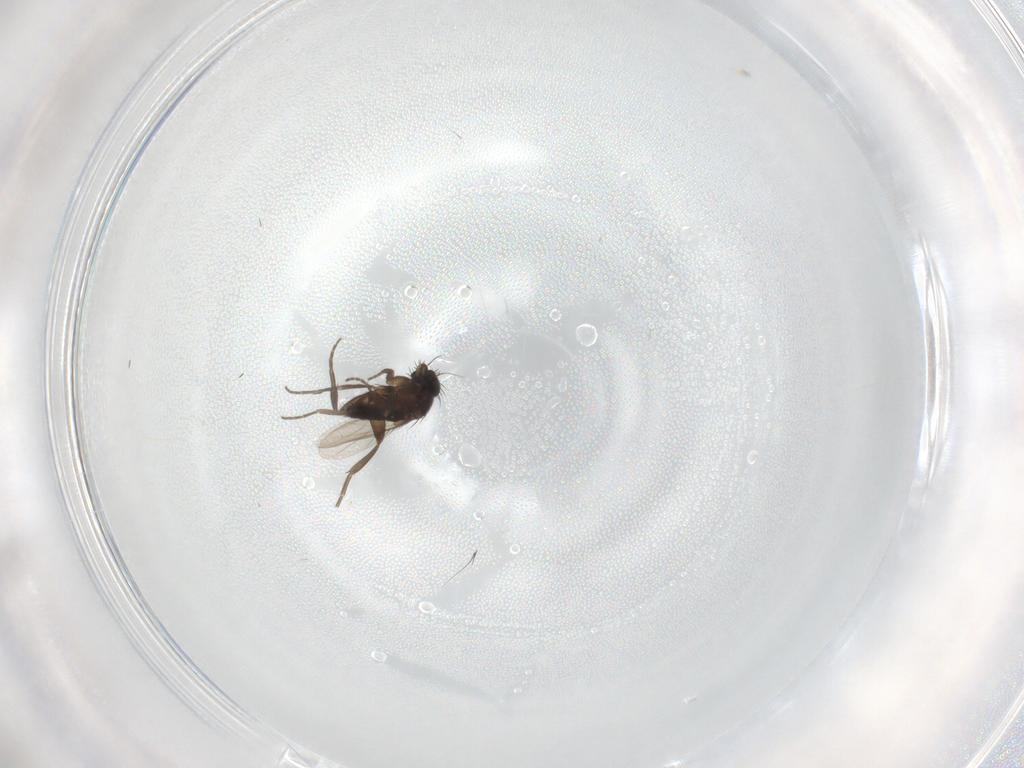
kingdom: Animalia
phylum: Arthropoda
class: Insecta
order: Diptera
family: Phoridae
